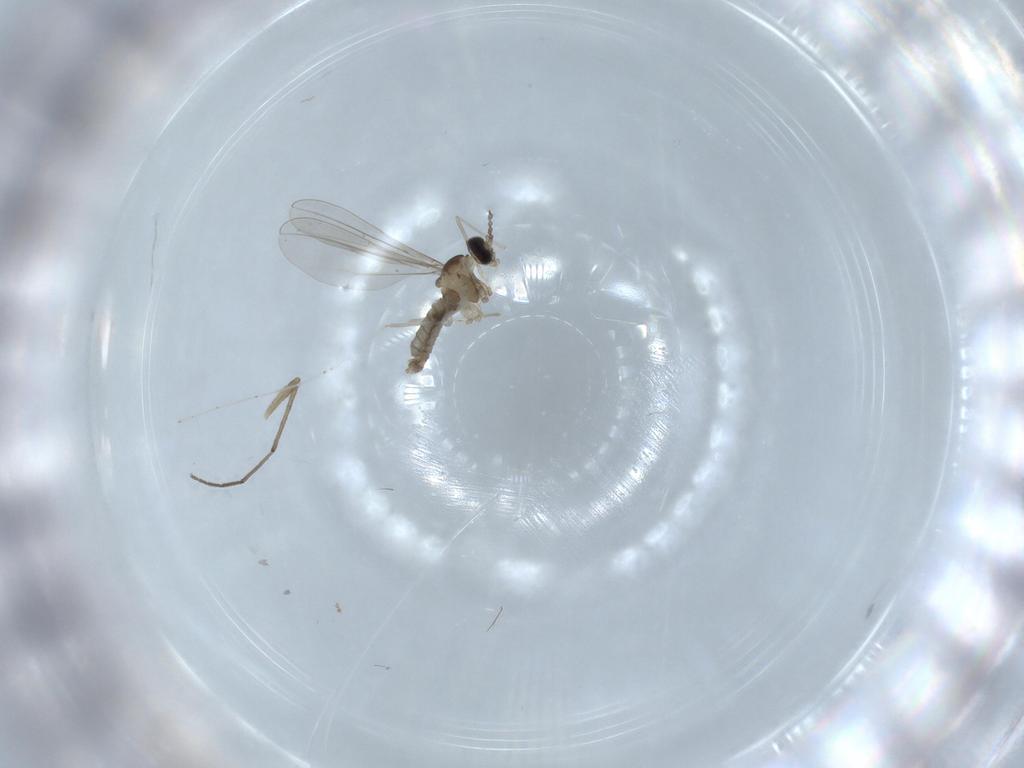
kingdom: Animalia
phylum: Arthropoda
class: Insecta
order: Diptera
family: Cecidomyiidae
